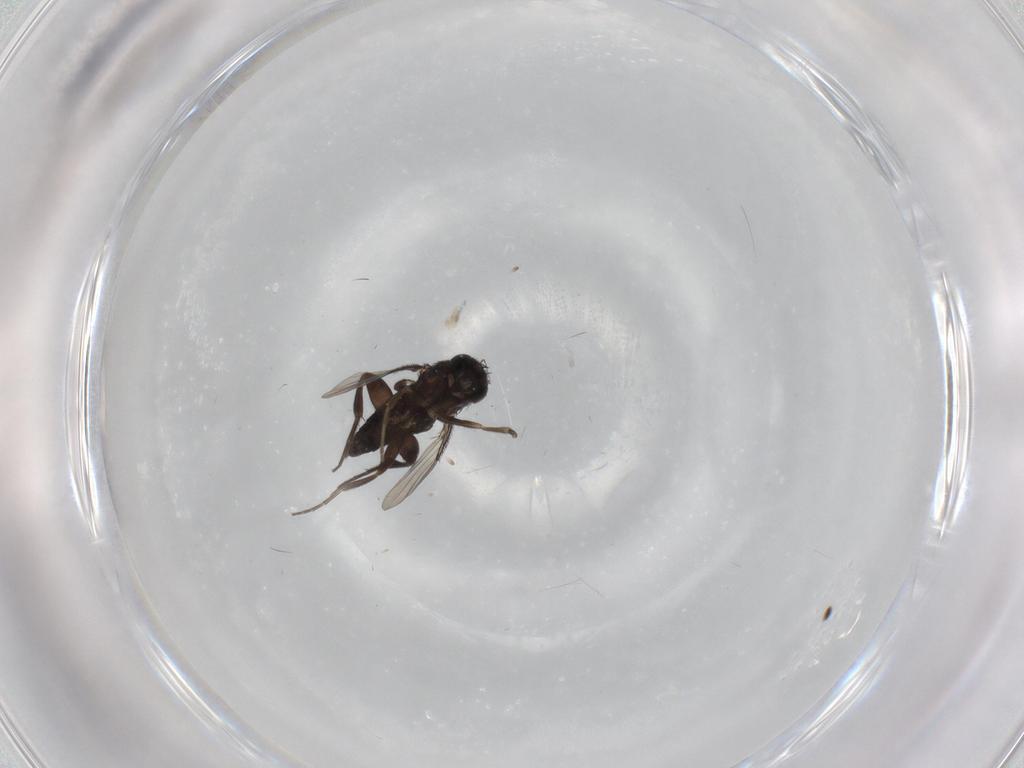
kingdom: Animalia
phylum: Arthropoda
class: Insecta
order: Diptera
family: Phoridae
